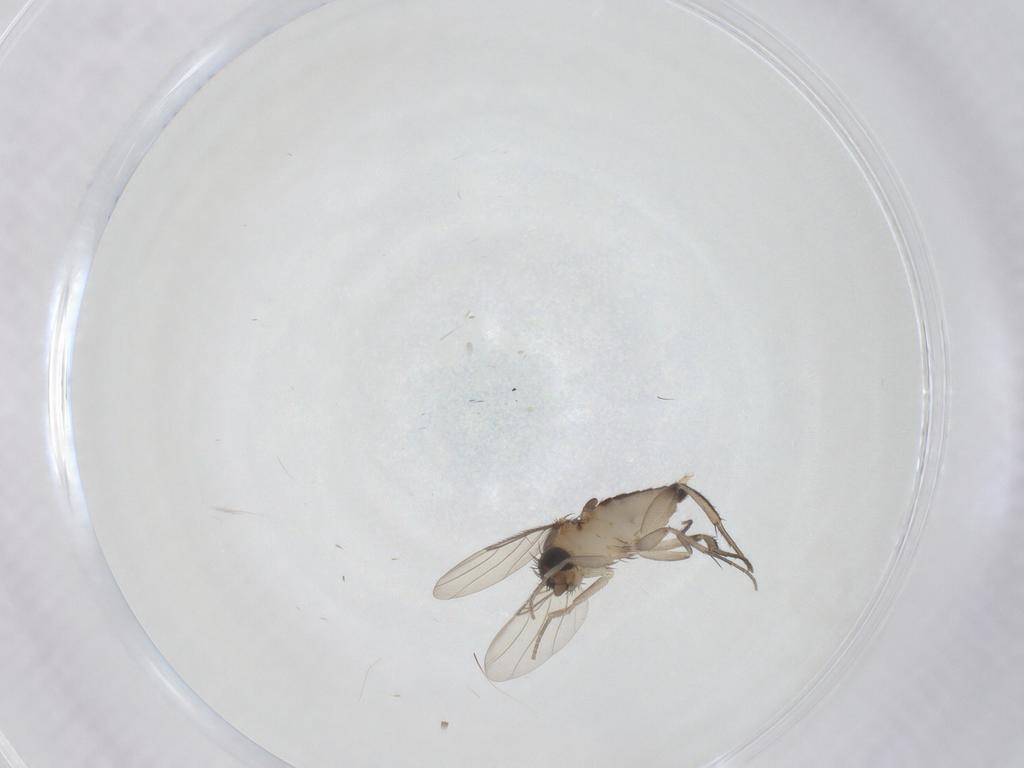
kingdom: Animalia
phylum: Arthropoda
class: Insecta
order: Diptera
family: Phoridae
